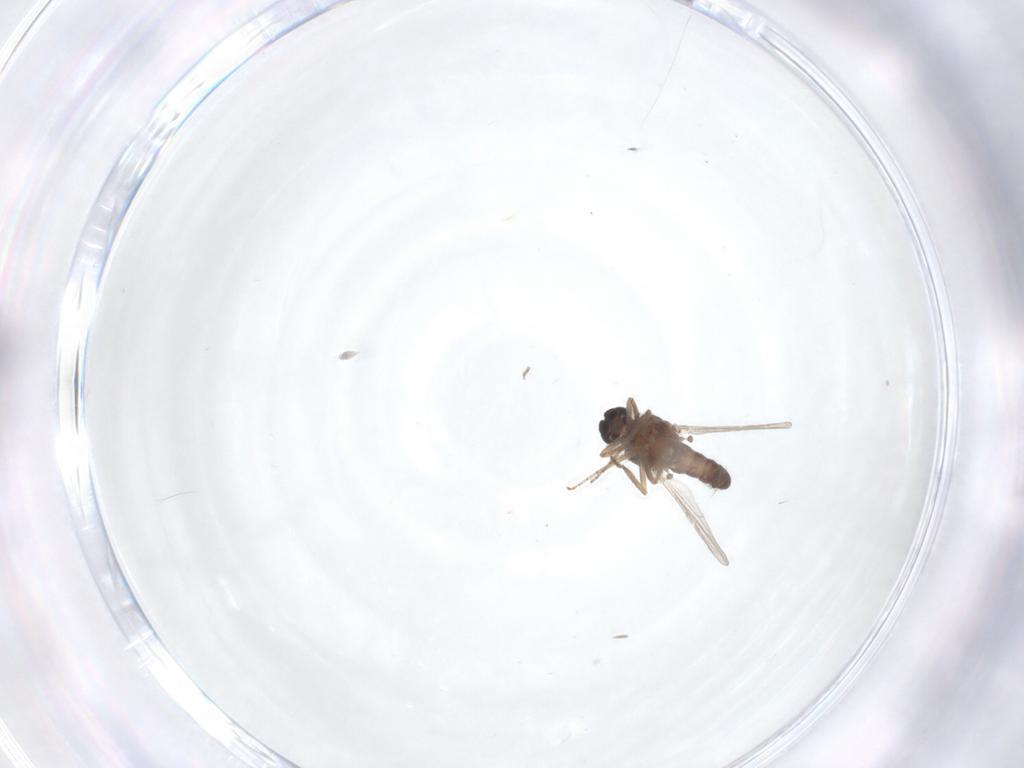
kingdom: Animalia
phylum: Arthropoda
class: Insecta
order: Diptera
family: Ceratopogonidae
